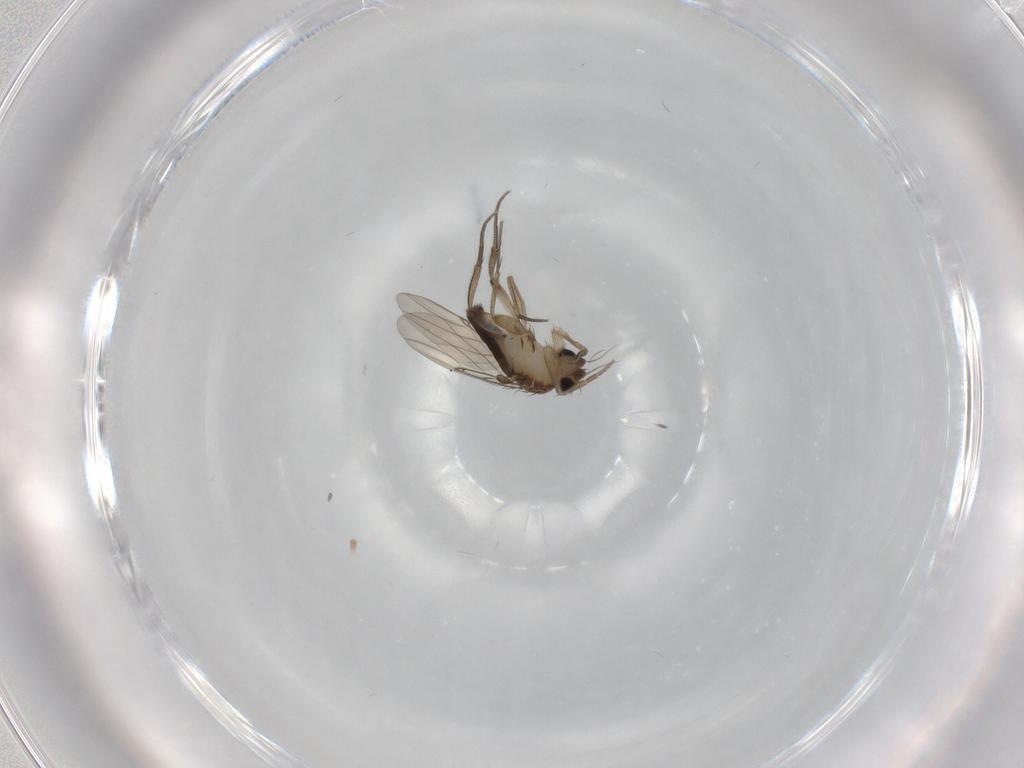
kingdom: Animalia
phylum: Arthropoda
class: Insecta
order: Diptera
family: Phoridae
